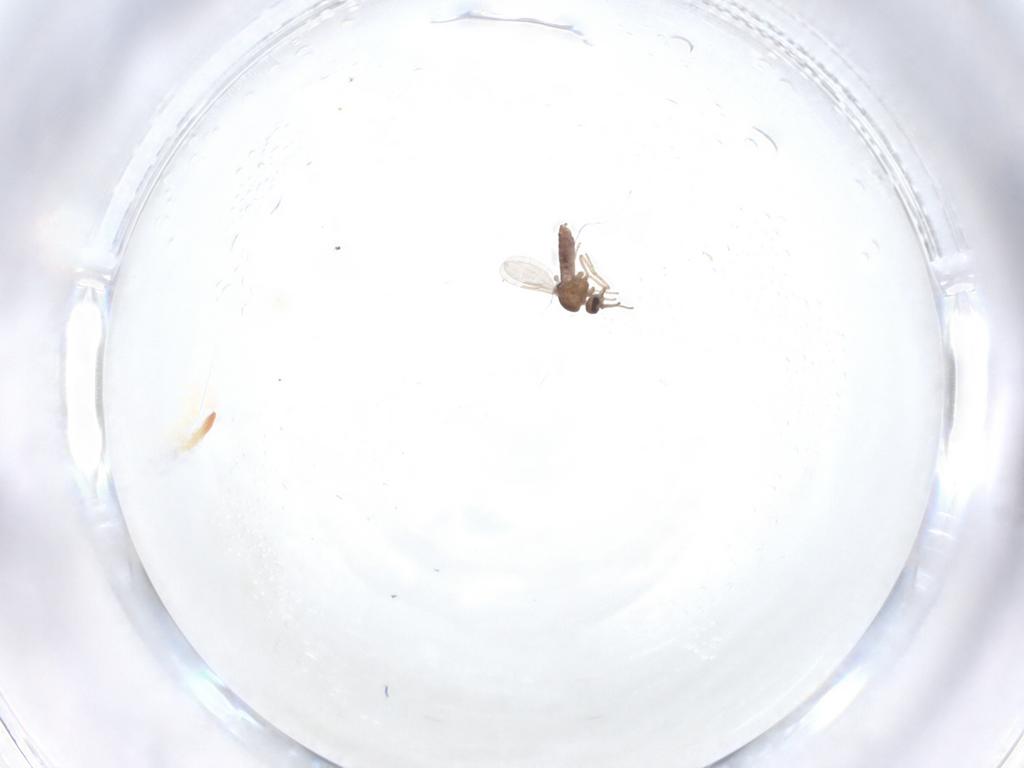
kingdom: Animalia
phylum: Arthropoda
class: Insecta
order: Diptera
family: Ceratopogonidae
